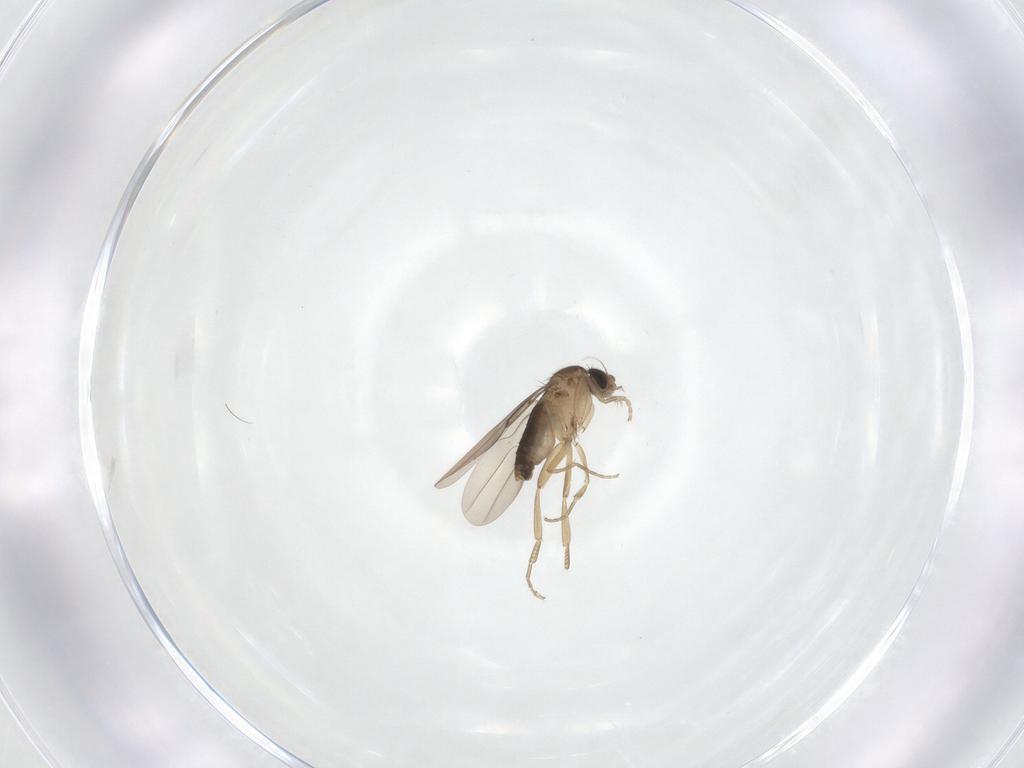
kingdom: Animalia
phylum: Arthropoda
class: Insecta
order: Diptera
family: Phoridae
